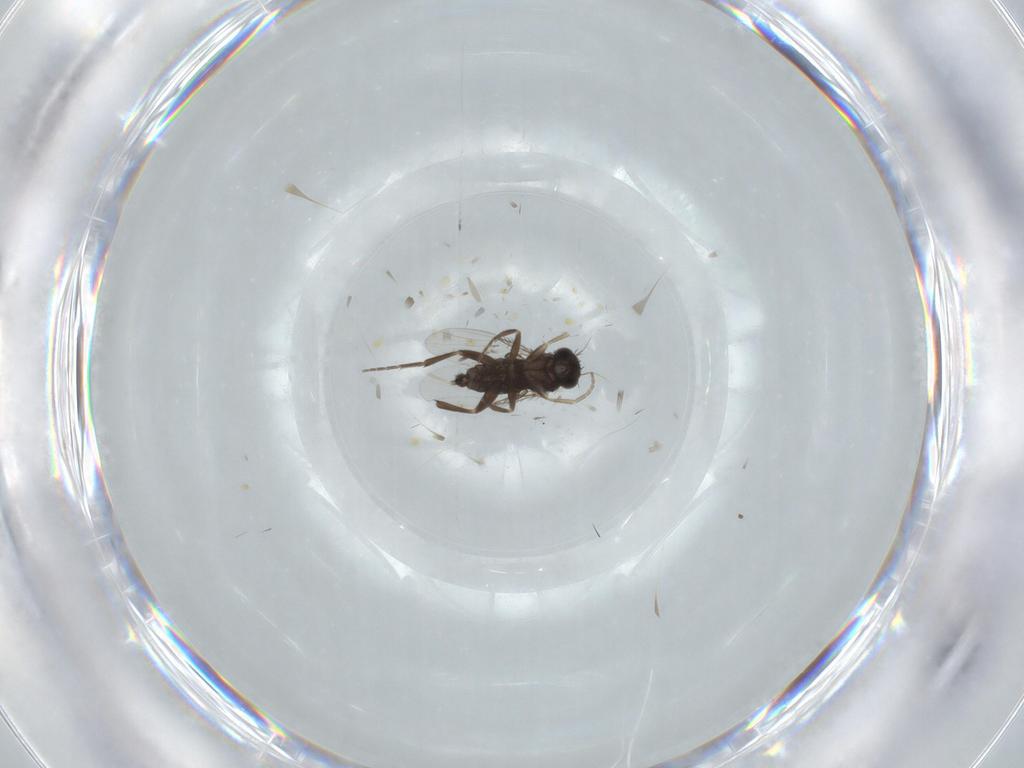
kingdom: Animalia
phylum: Arthropoda
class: Insecta
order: Diptera
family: Phoridae
